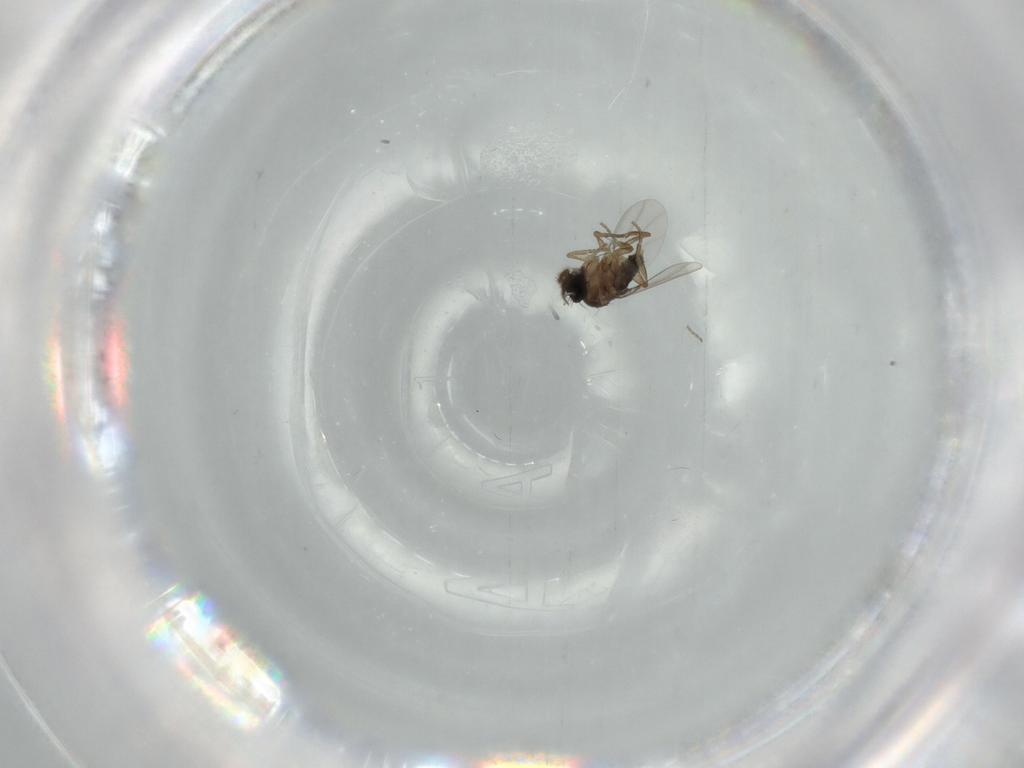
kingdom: Animalia
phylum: Arthropoda
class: Insecta
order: Diptera
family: Phoridae
